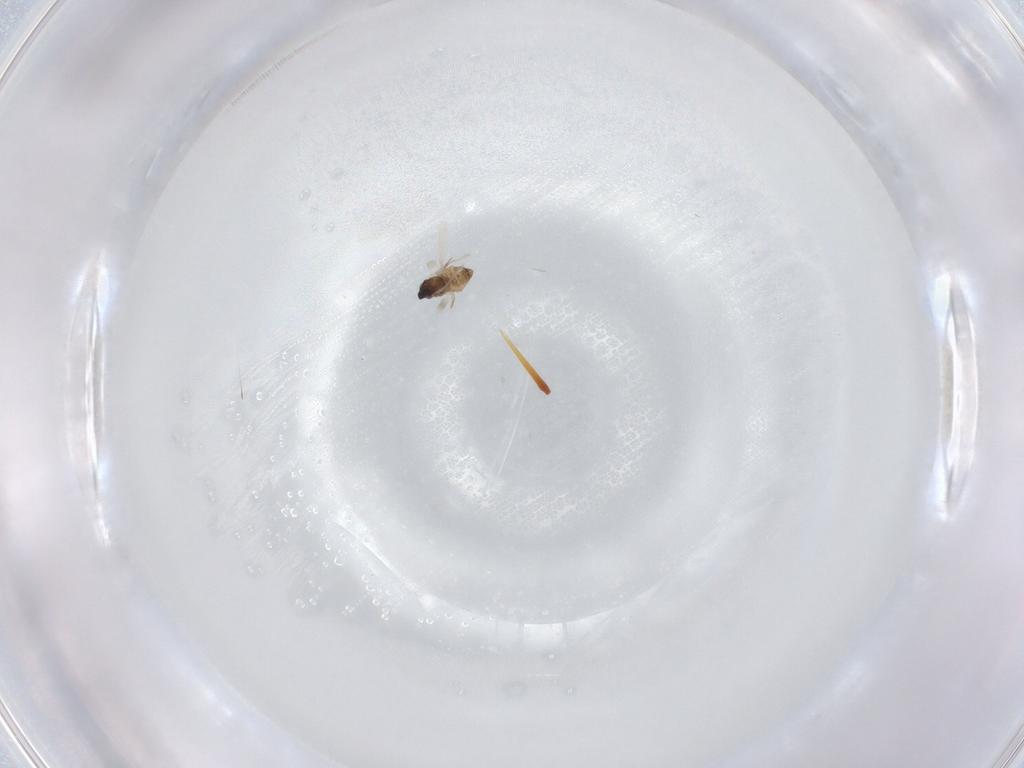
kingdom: Animalia
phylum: Arthropoda
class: Insecta
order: Diptera
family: Cecidomyiidae
